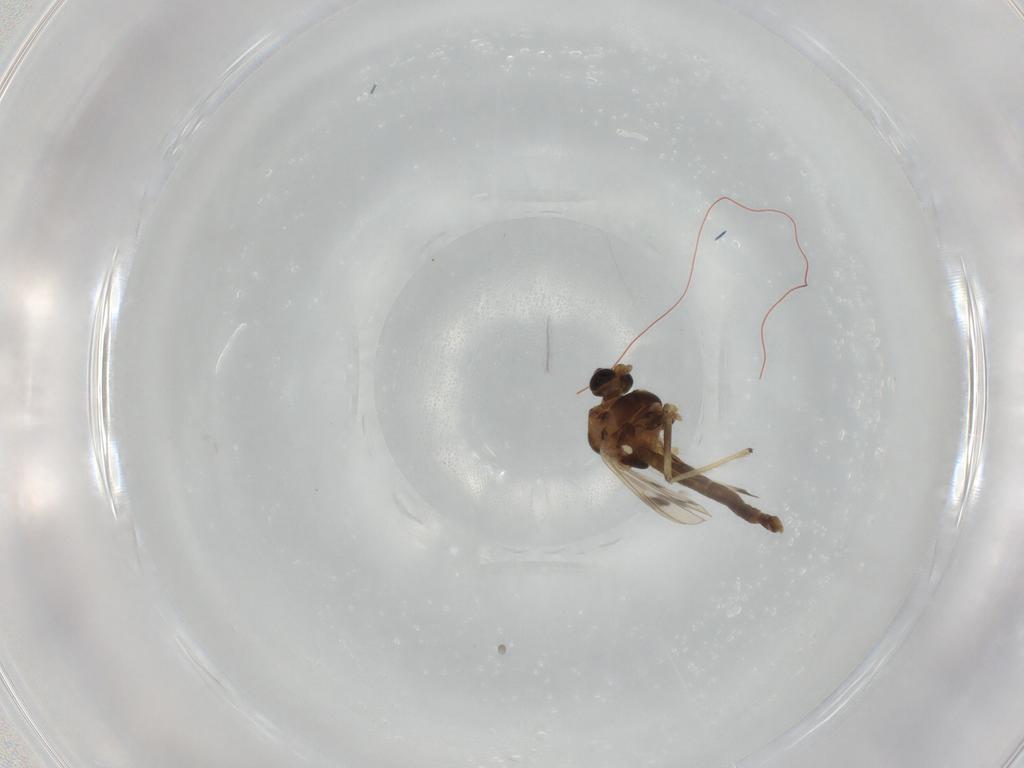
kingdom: Animalia
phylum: Arthropoda
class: Insecta
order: Diptera
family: Chironomidae
